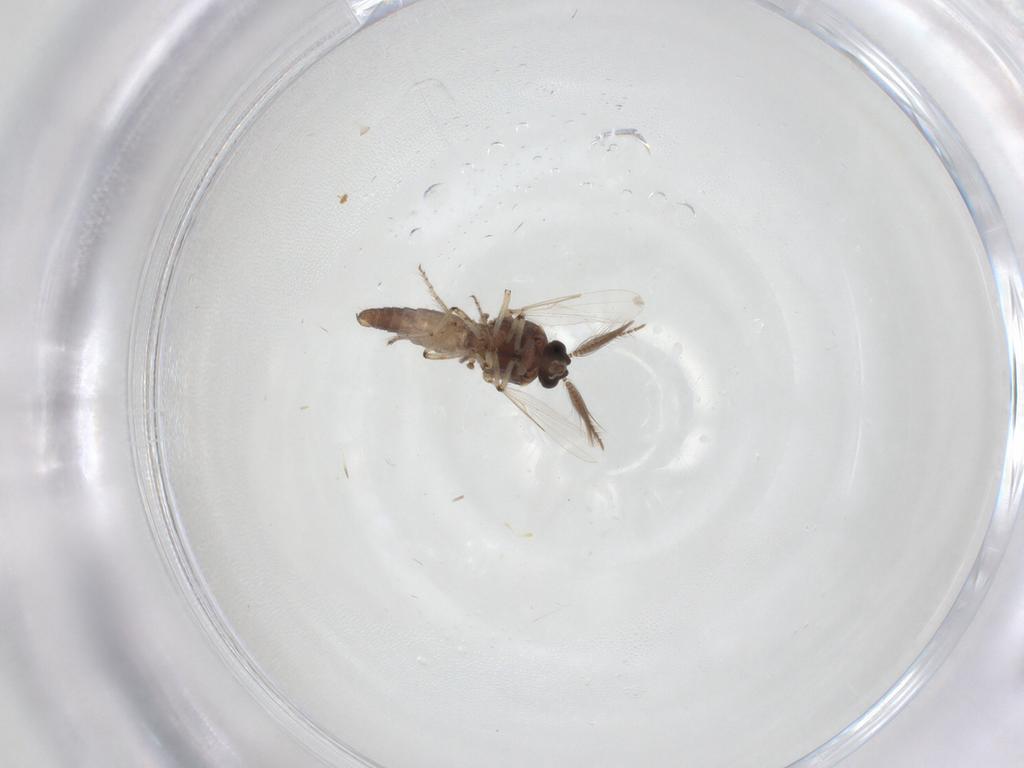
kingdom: Animalia
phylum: Arthropoda
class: Insecta
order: Diptera
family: Ceratopogonidae
